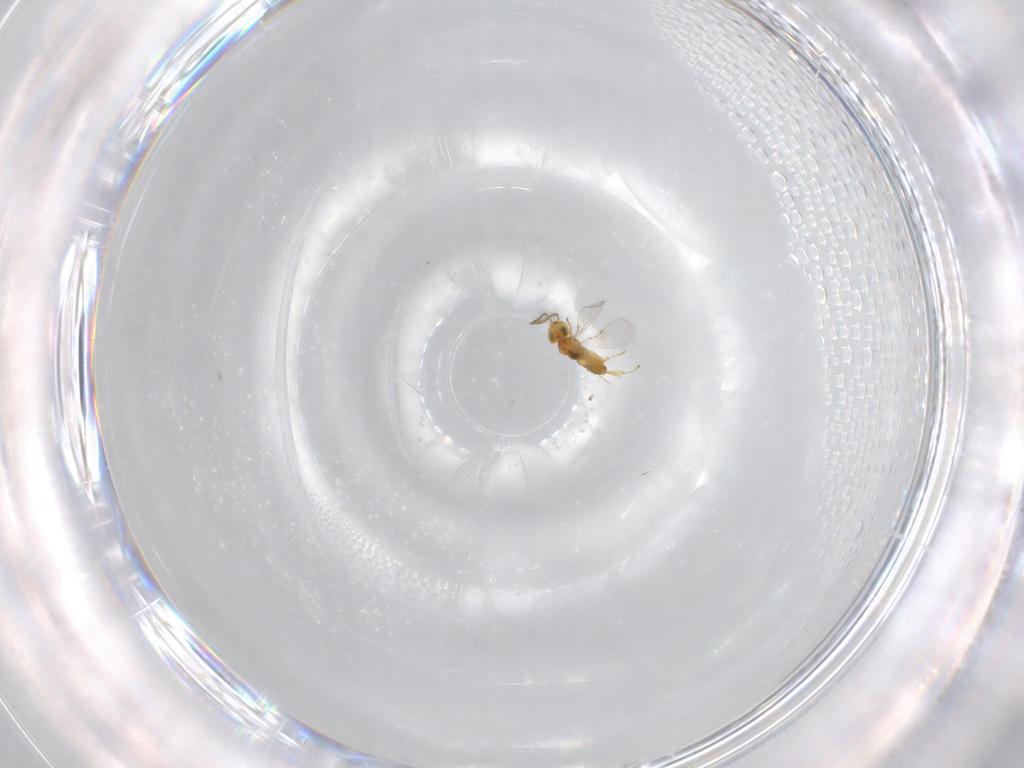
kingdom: Animalia
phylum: Arthropoda
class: Insecta
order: Hymenoptera
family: Encyrtidae
